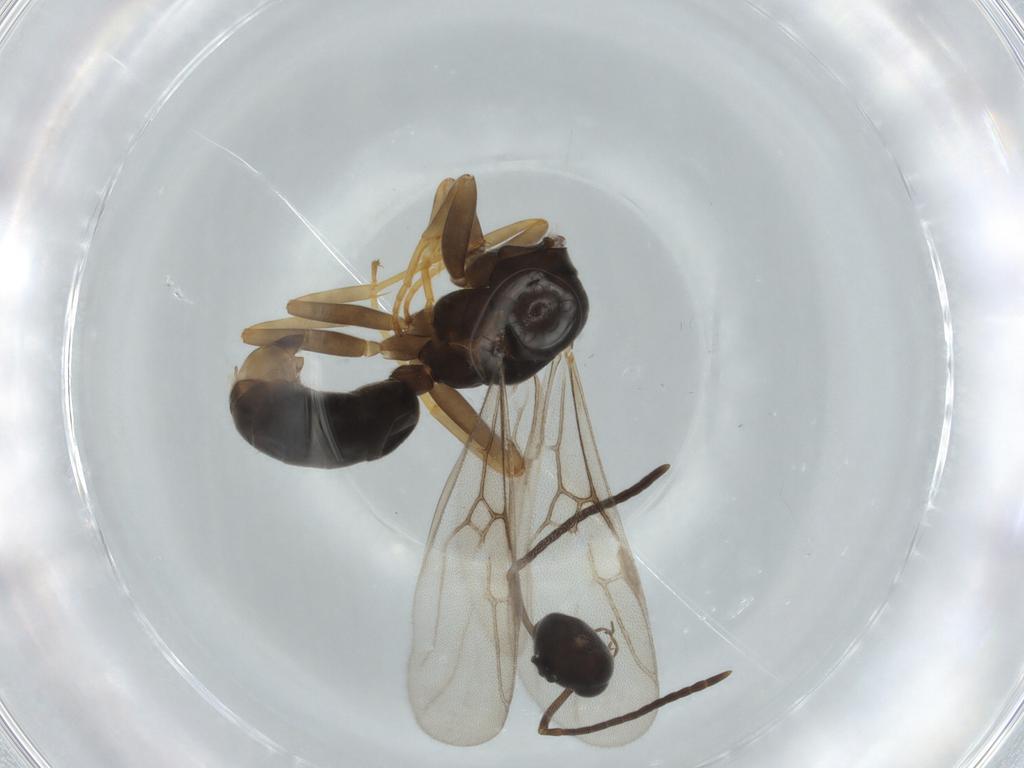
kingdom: Animalia
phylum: Arthropoda
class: Insecta
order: Hymenoptera
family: Formicidae
